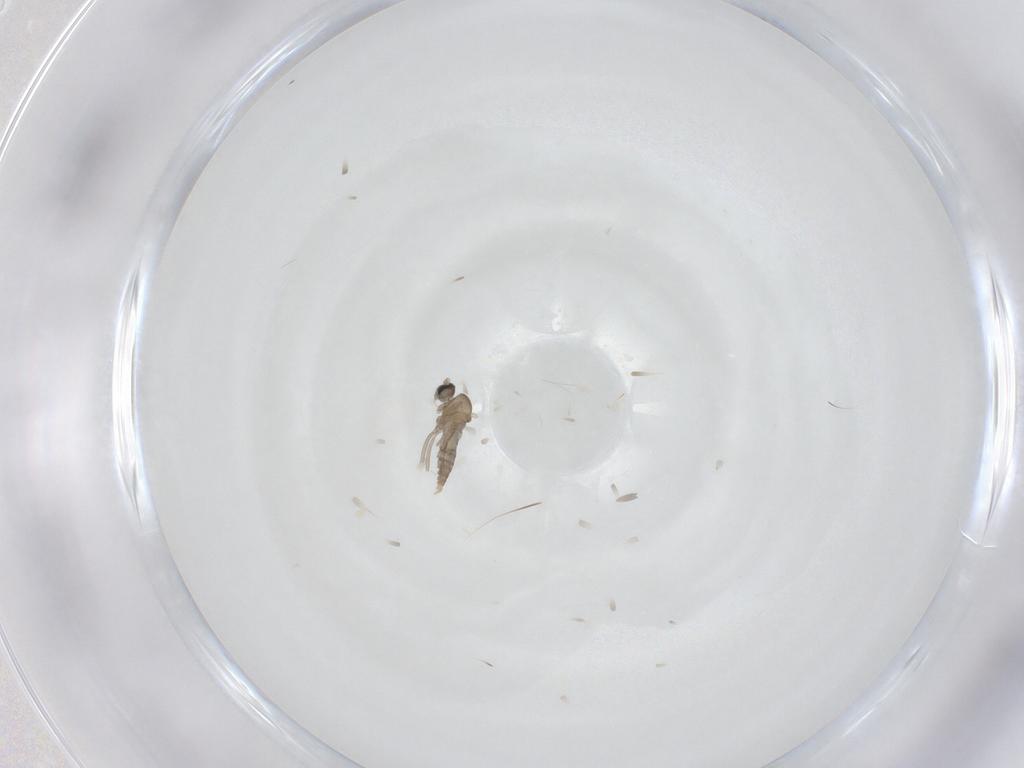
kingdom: Animalia
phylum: Arthropoda
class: Insecta
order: Diptera
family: Cecidomyiidae
